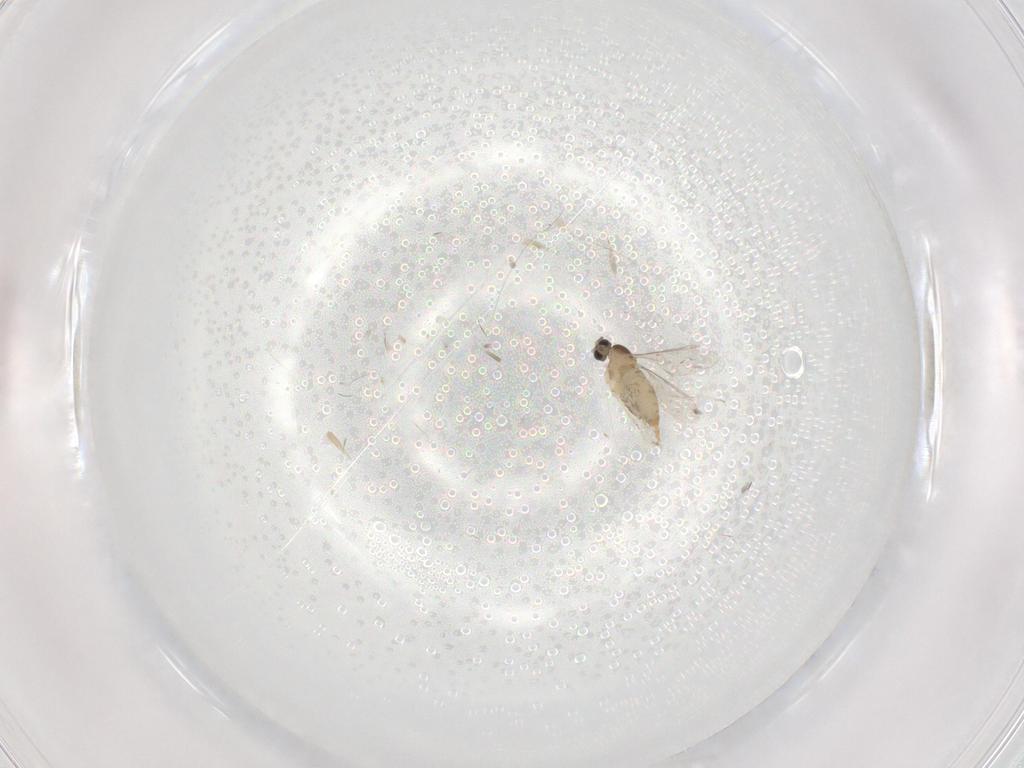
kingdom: Animalia
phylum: Arthropoda
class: Insecta
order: Diptera
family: Cecidomyiidae
